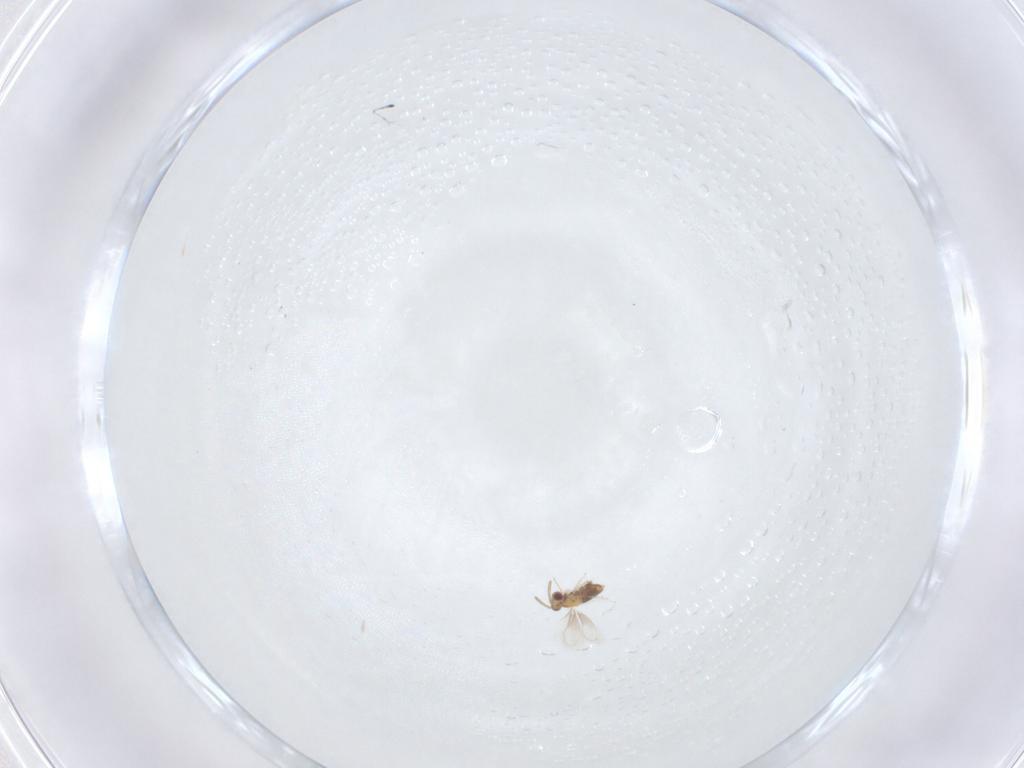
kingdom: Animalia
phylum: Arthropoda
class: Insecta
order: Hymenoptera
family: Aphelinidae
